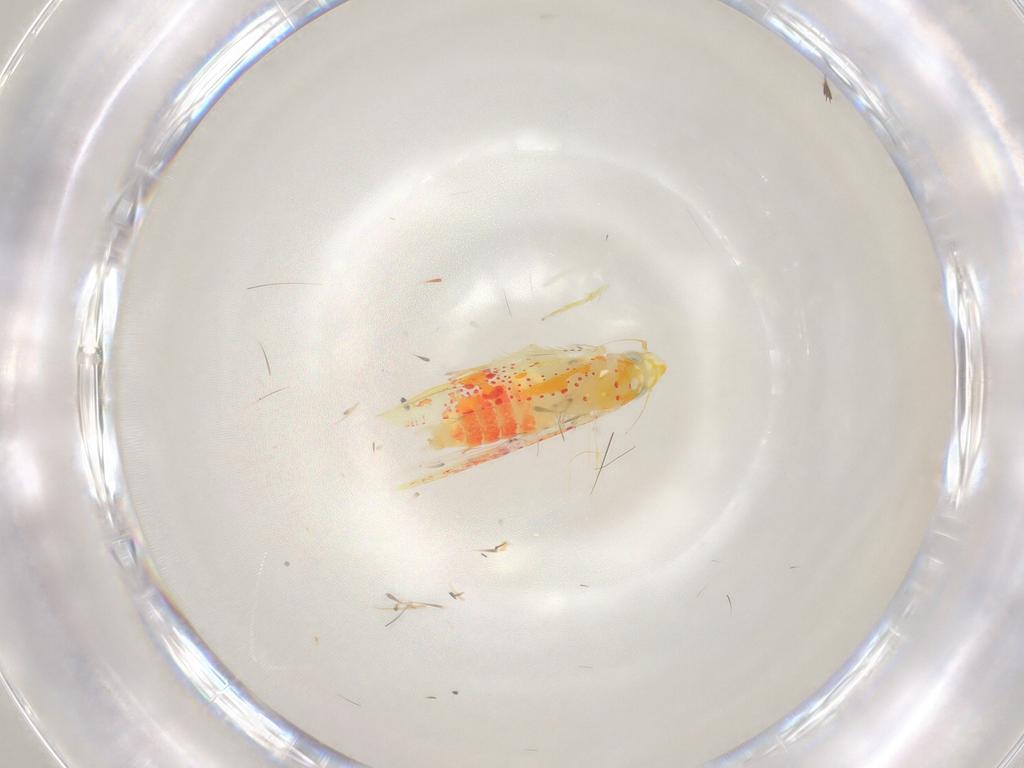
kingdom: Animalia
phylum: Arthropoda
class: Insecta
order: Hemiptera
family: Cicadellidae
